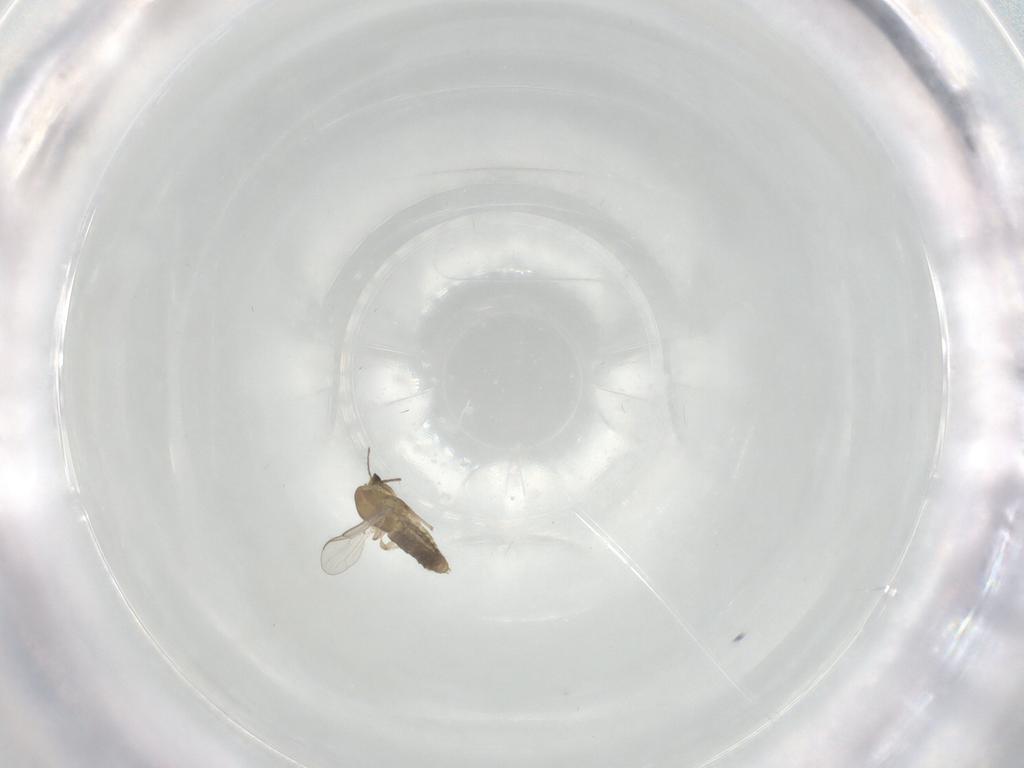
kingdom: Animalia
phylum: Arthropoda
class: Insecta
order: Diptera
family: Chironomidae
